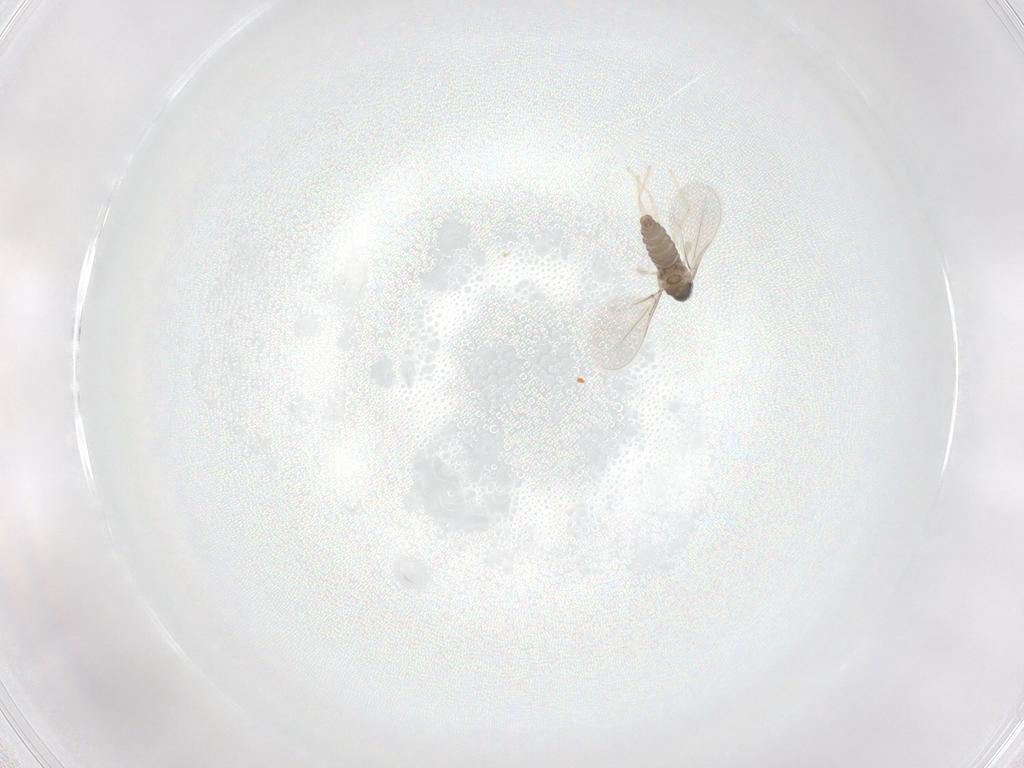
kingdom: Animalia
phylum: Arthropoda
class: Insecta
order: Diptera
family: Cecidomyiidae
